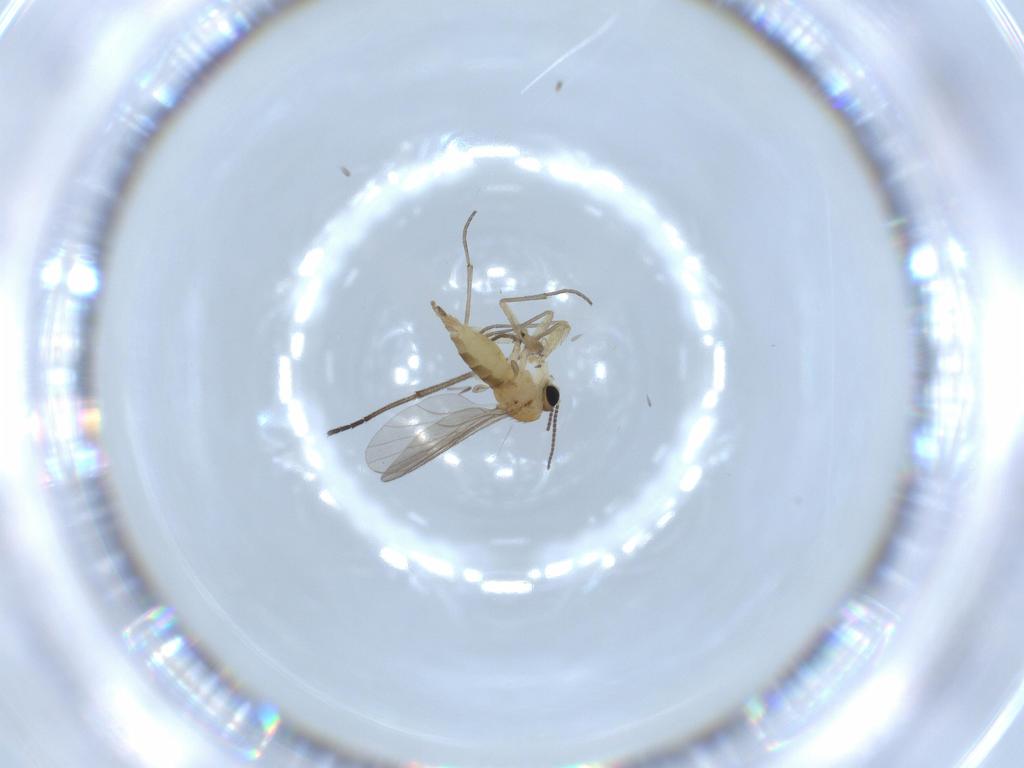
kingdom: Animalia
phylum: Arthropoda
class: Insecta
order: Diptera
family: Sciaridae
